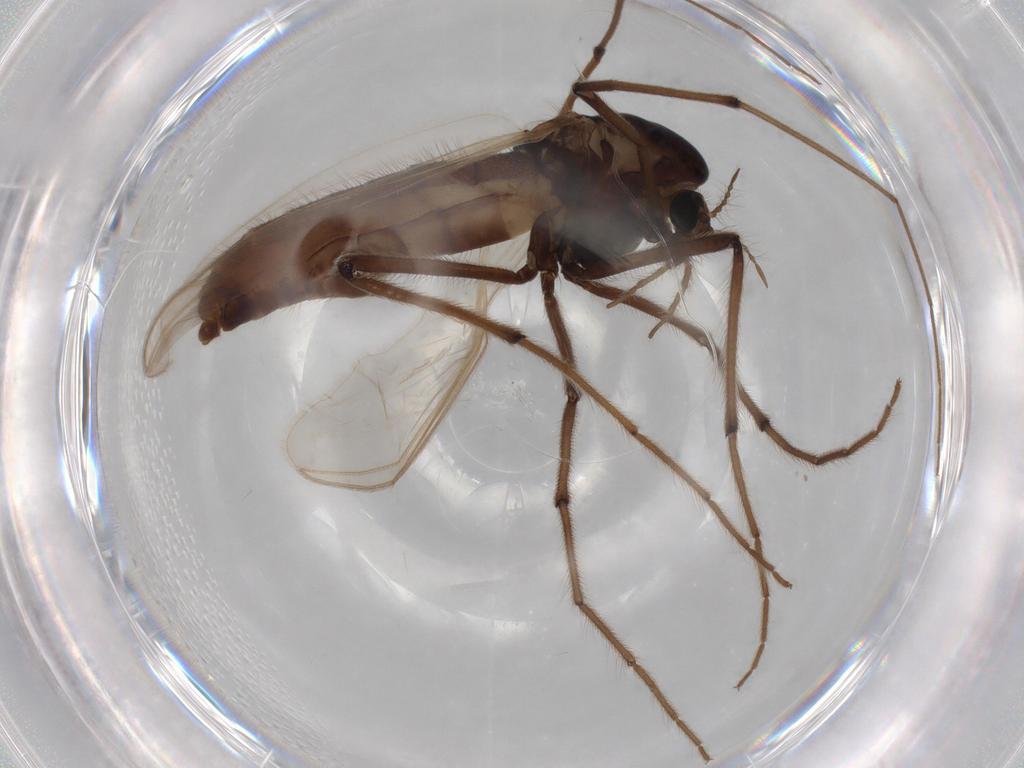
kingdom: Animalia
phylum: Arthropoda
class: Insecta
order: Diptera
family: Chironomidae
